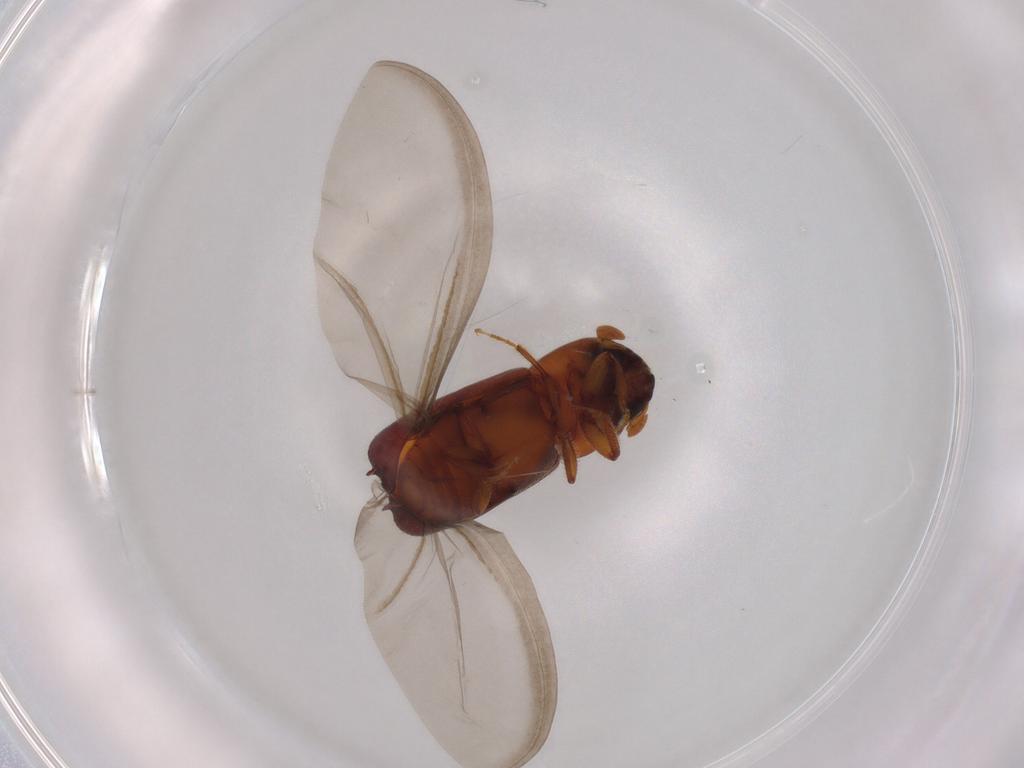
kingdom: Animalia
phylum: Arthropoda
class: Insecta
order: Coleoptera
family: Curculionidae
